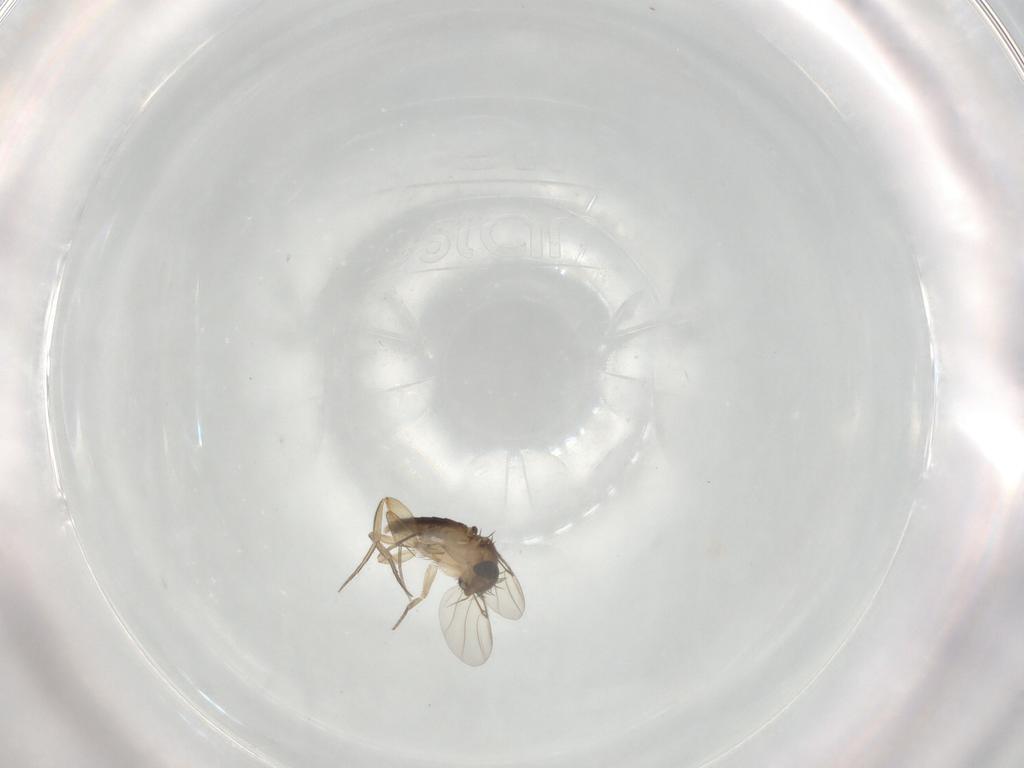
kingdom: Animalia
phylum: Arthropoda
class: Insecta
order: Diptera
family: Phoridae
